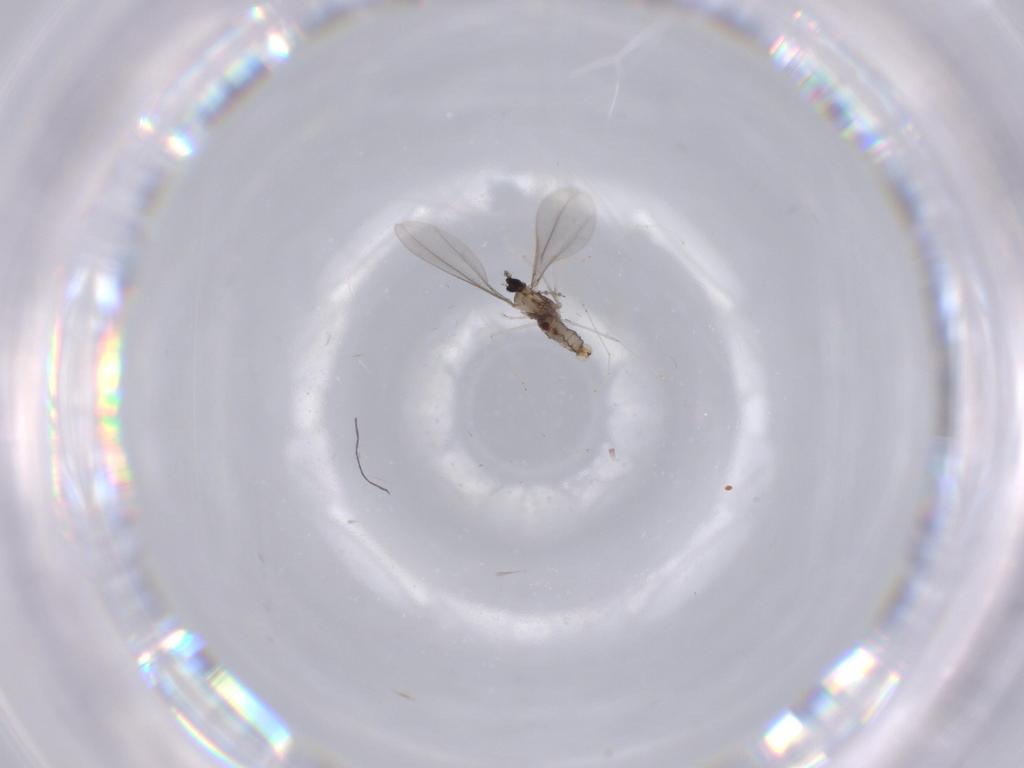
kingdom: Animalia
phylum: Arthropoda
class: Insecta
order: Diptera
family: Cecidomyiidae
